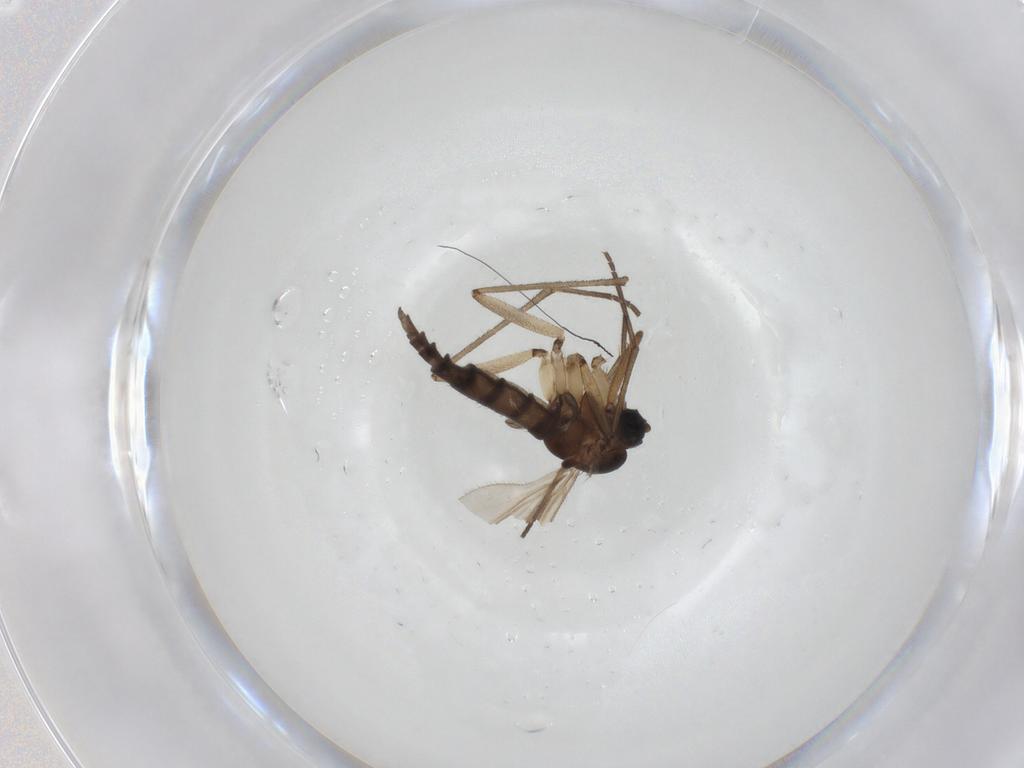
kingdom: Animalia
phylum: Arthropoda
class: Insecta
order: Diptera
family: Sciaridae
